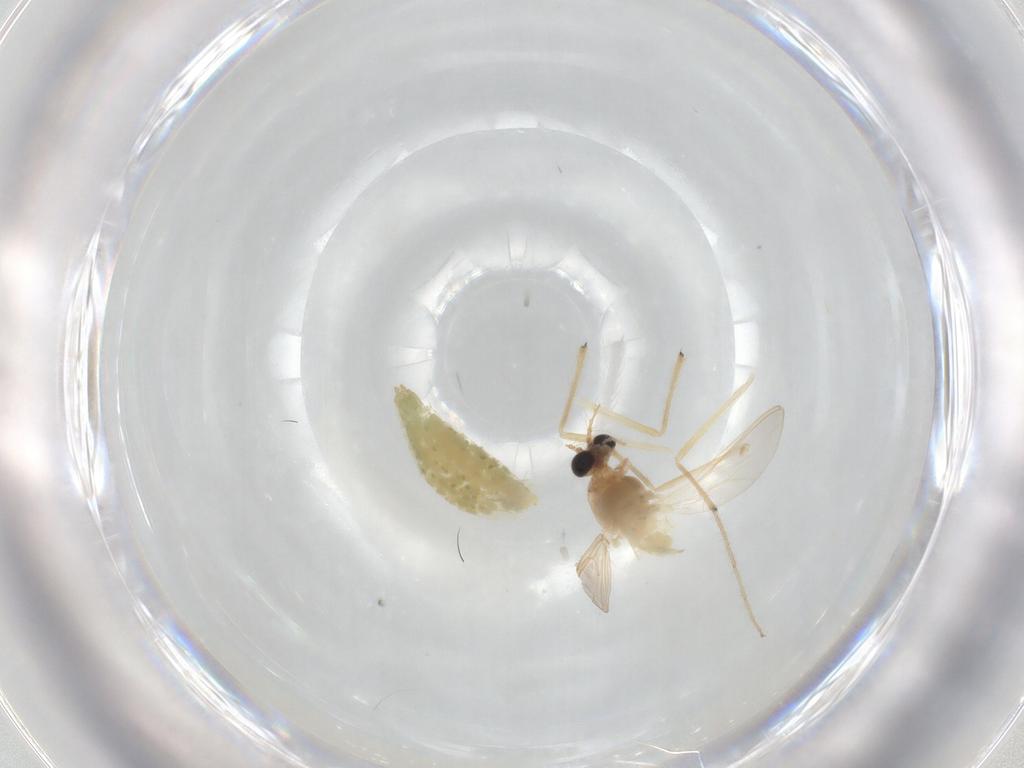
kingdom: Animalia
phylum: Arthropoda
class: Insecta
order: Diptera
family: Chironomidae
